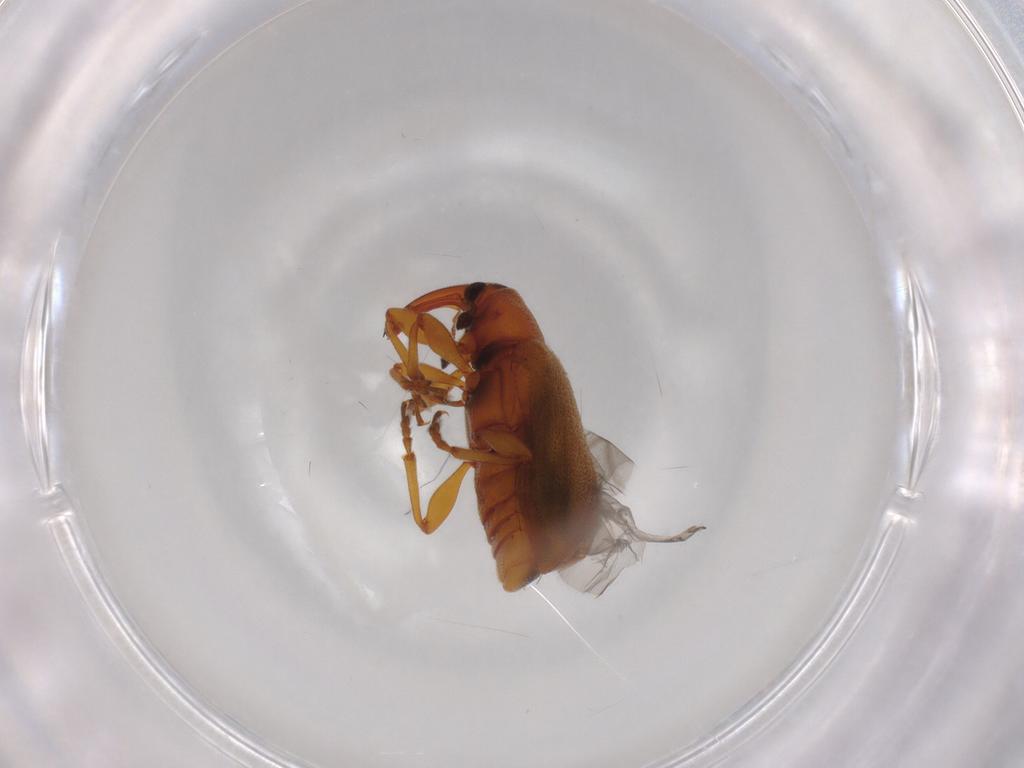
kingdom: Animalia
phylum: Arthropoda
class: Insecta
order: Coleoptera
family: Curculionidae
